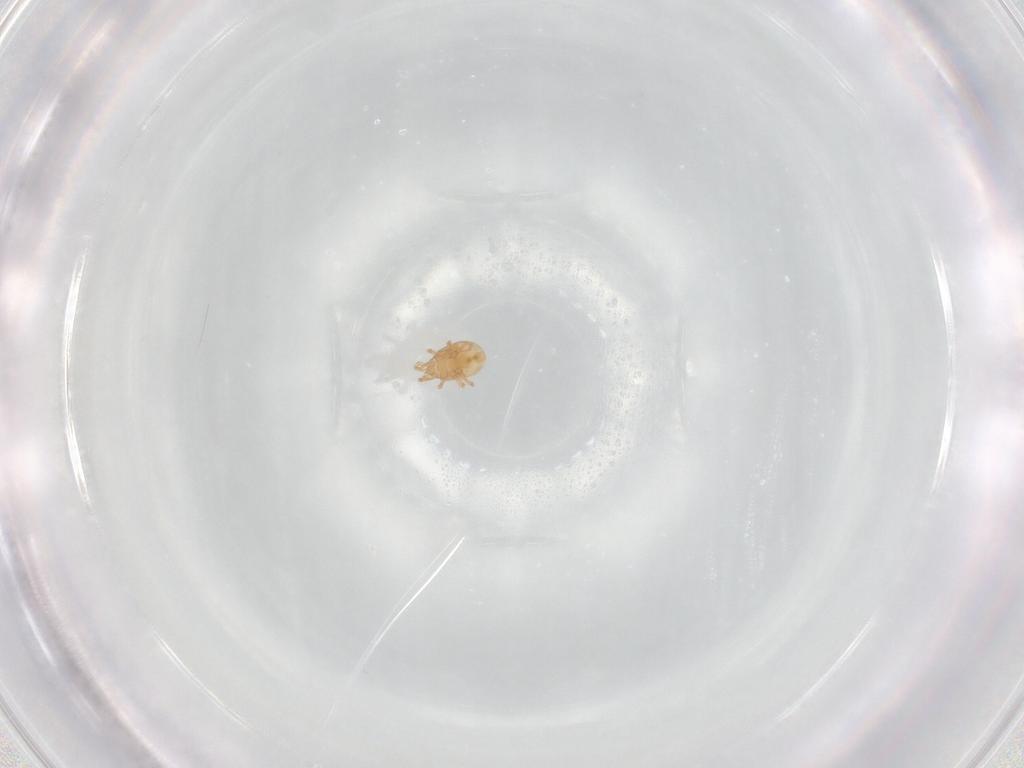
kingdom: Animalia
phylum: Arthropoda
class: Arachnida
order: Mesostigmata
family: Melicharidae
